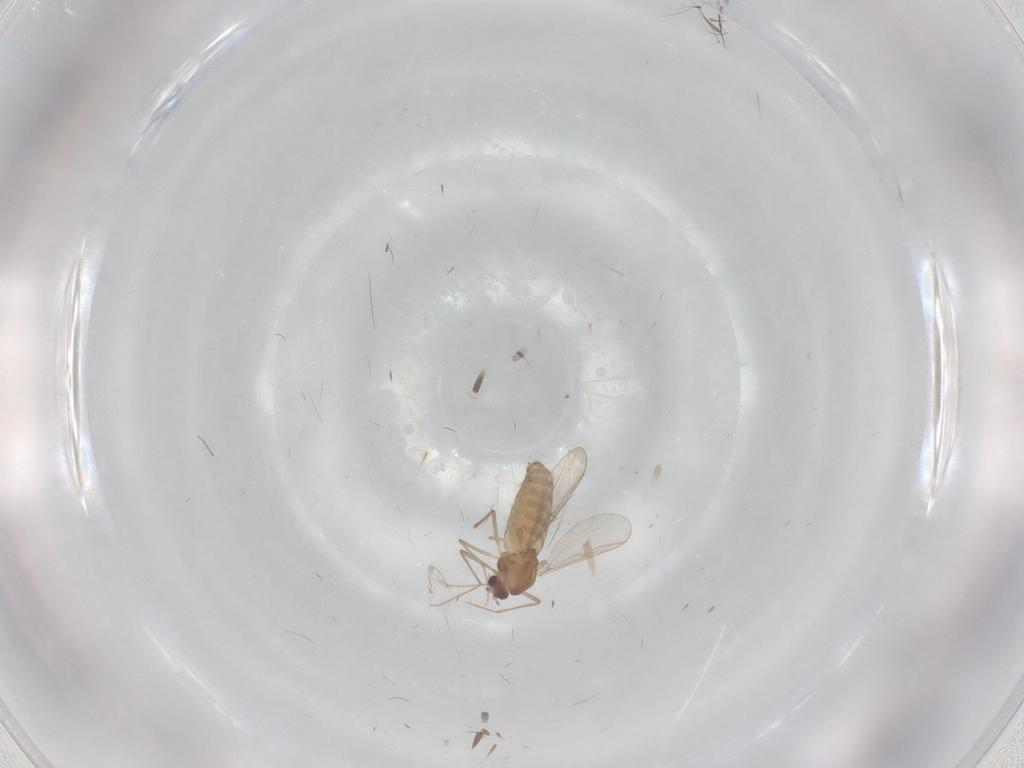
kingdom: Animalia
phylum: Arthropoda
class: Insecta
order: Diptera
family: Chironomidae
